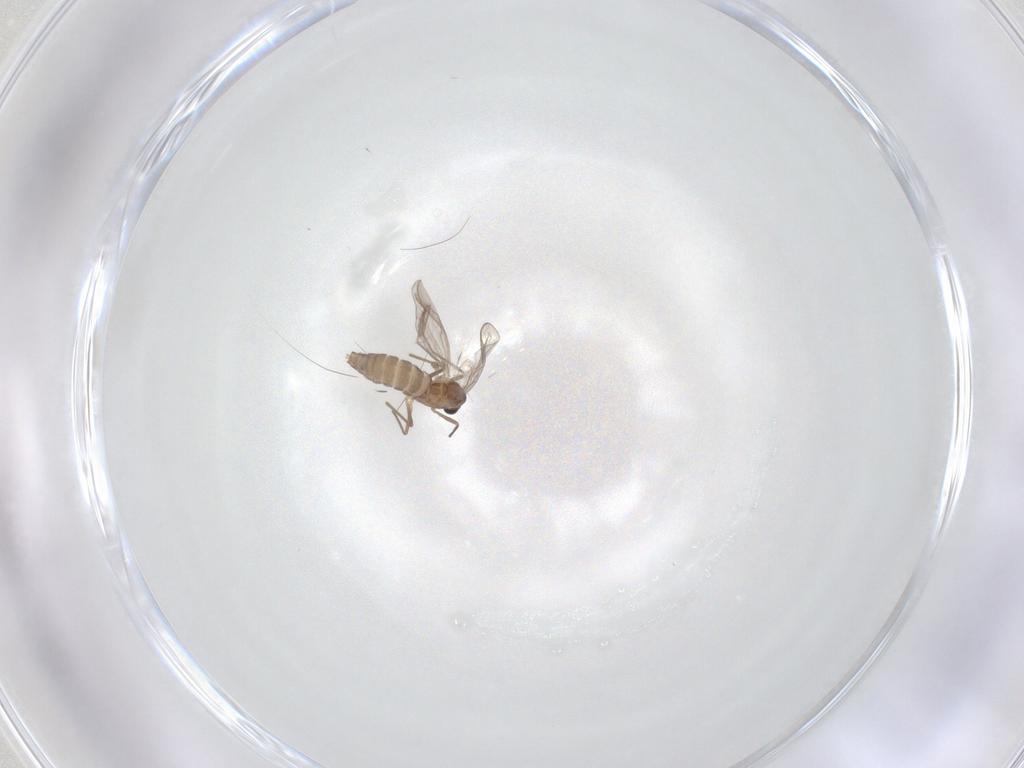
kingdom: Animalia
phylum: Arthropoda
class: Insecta
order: Diptera
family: Chironomidae
